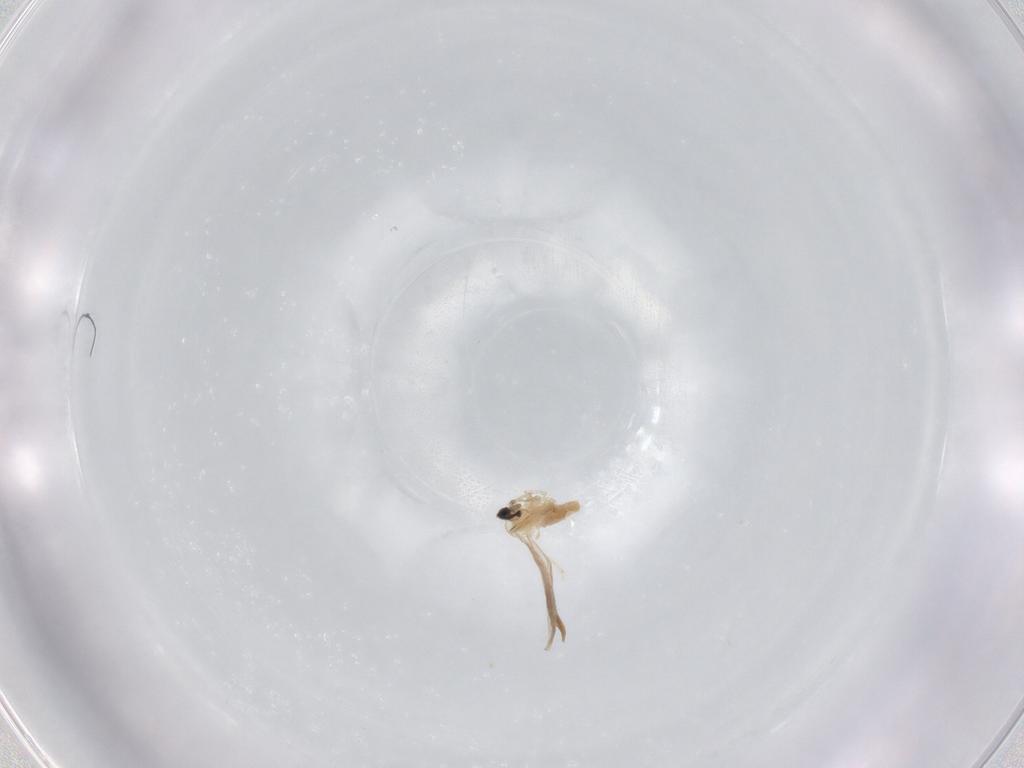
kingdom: Animalia
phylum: Arthropoda
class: Insecta
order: Diptera
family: Cecidomyiidae
